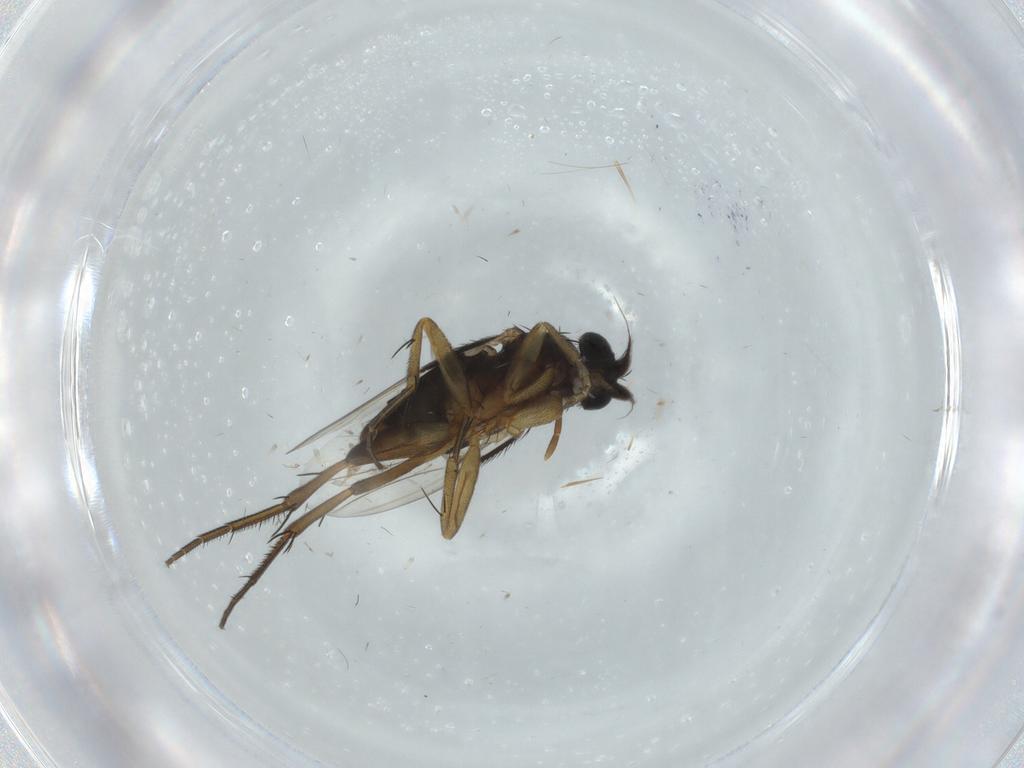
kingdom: Animalia
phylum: Arthropoda
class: Insecta
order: Diptera
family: Phoridae
